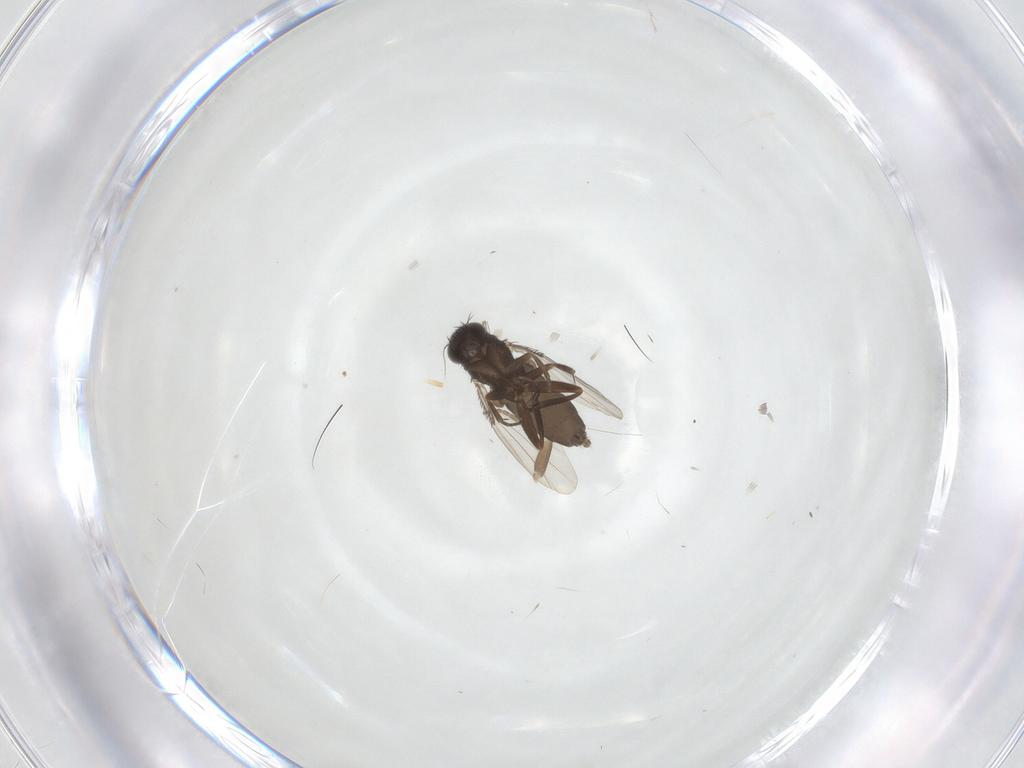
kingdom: Animalia
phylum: Arthropoda
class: Insecta
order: Diptera
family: Phoridae
